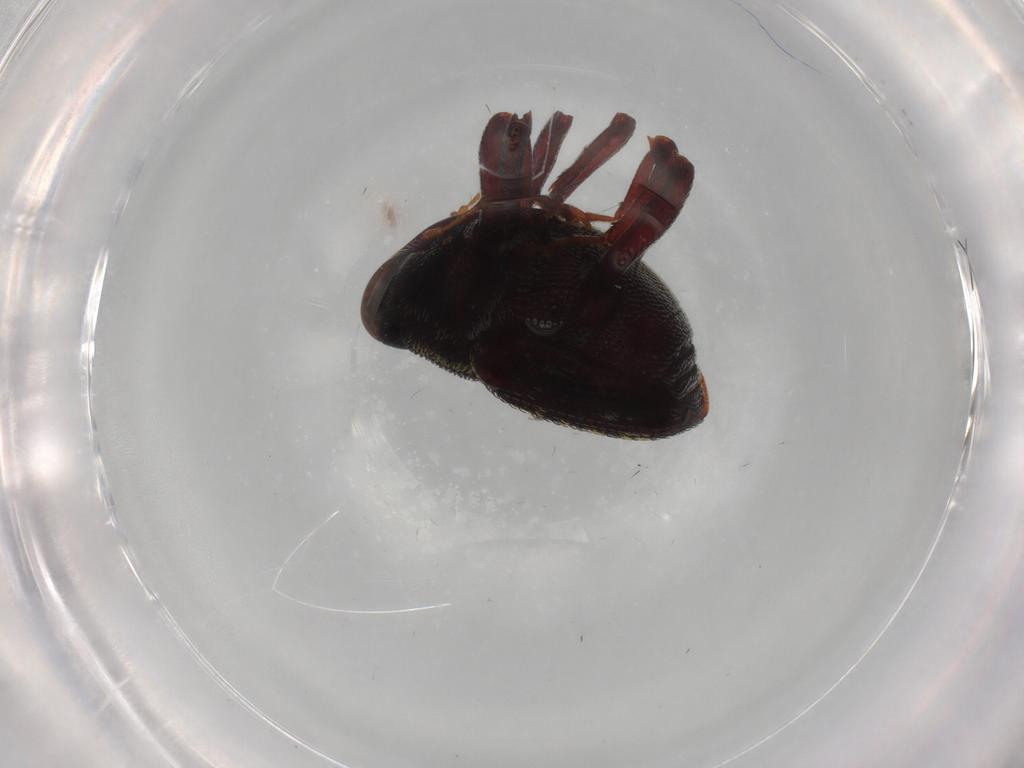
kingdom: Animalia
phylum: Arthropoda
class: Insecta
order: Coleoptera
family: Curculionidae
